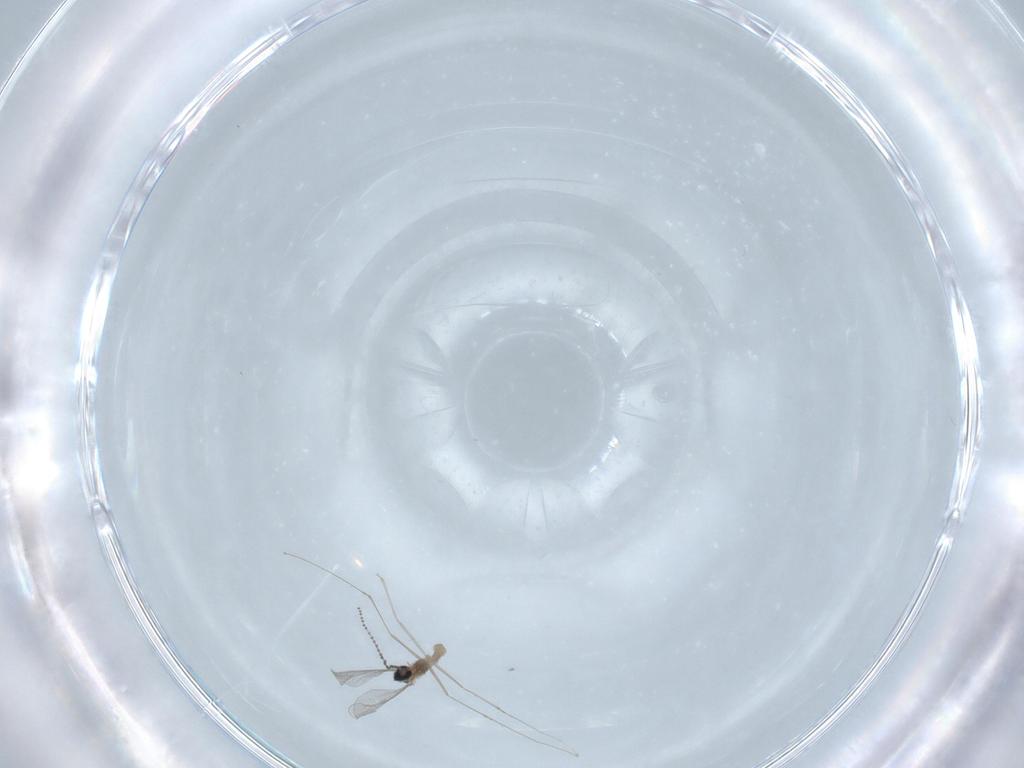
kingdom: Animalia
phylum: Arthropoda
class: Insecta
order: Diptera
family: Cecidomyiidae
